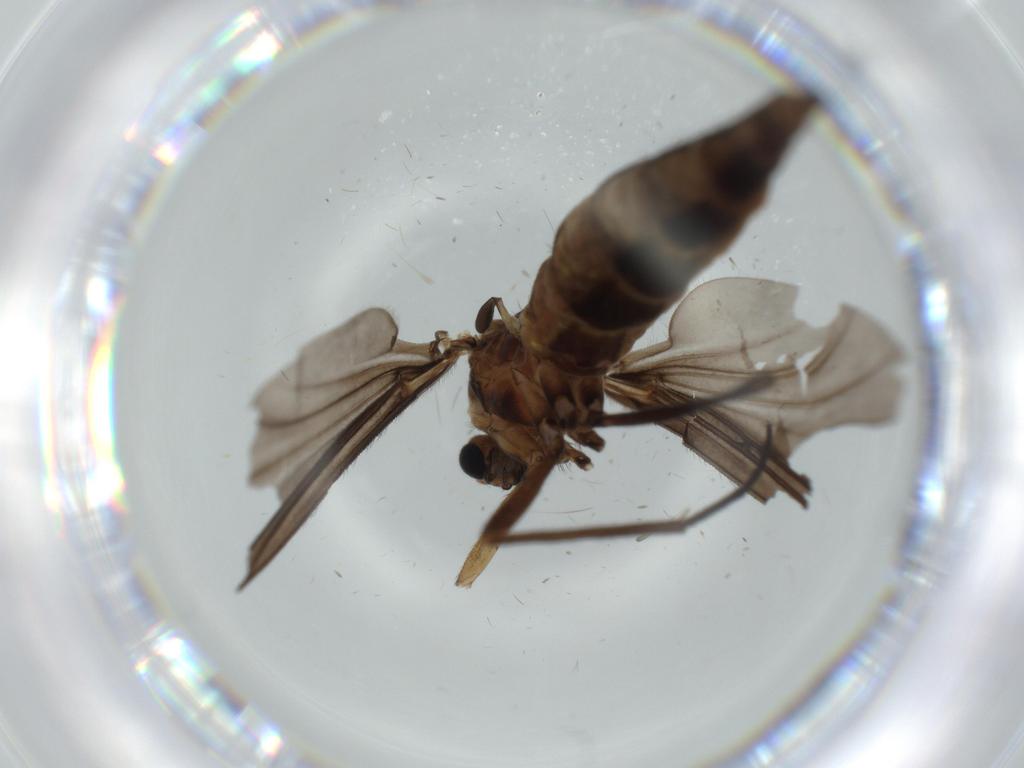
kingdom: Animalia
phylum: Arthropoda
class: Insecta
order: Diptera
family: Sciaridae
